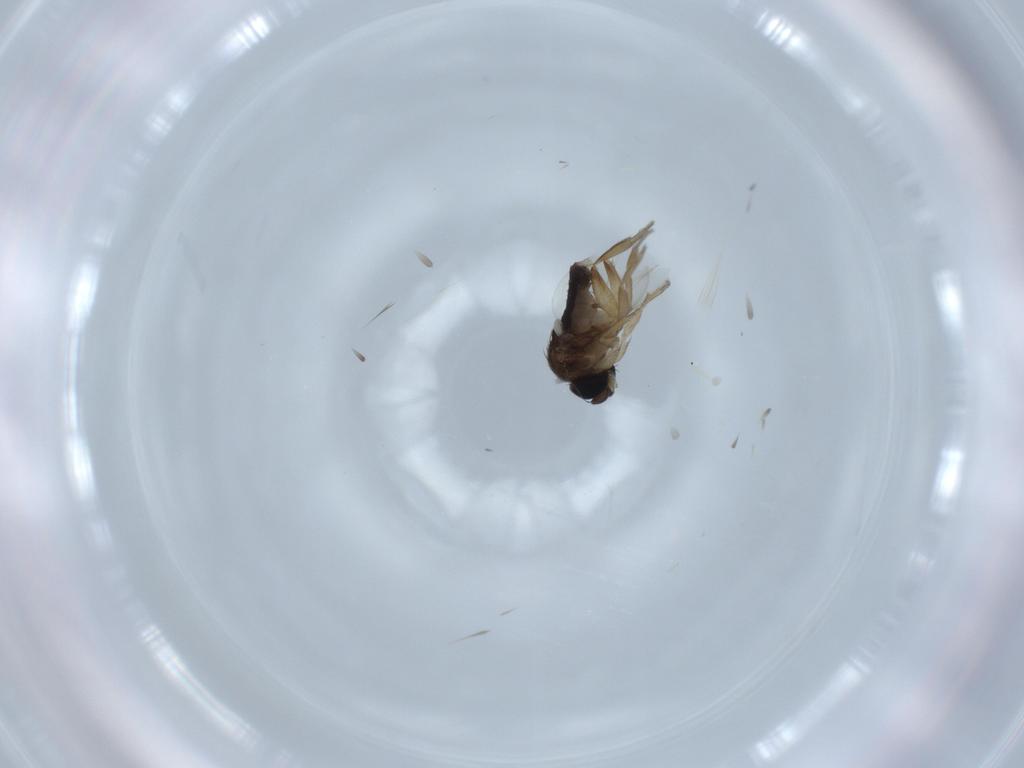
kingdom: Animalia
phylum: Arthropoda
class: Insecta
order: Diptera
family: Phoridae
